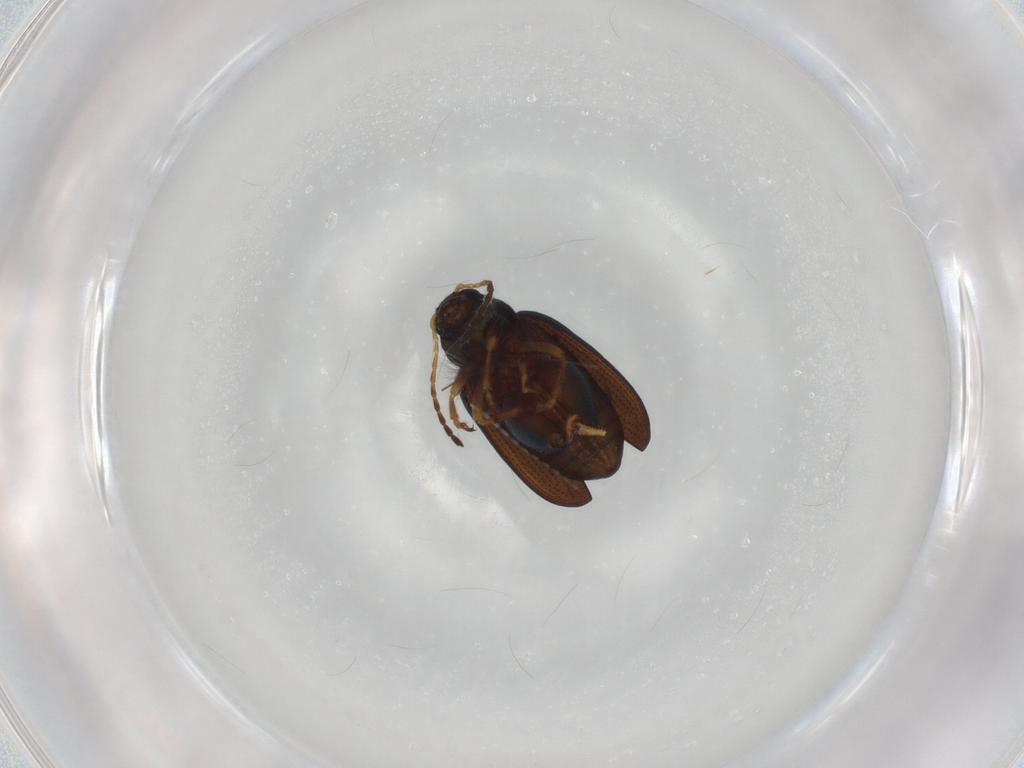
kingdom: Animalia
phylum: Arthropoda
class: Insecta
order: Coleoptera
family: Chrysomelidae
